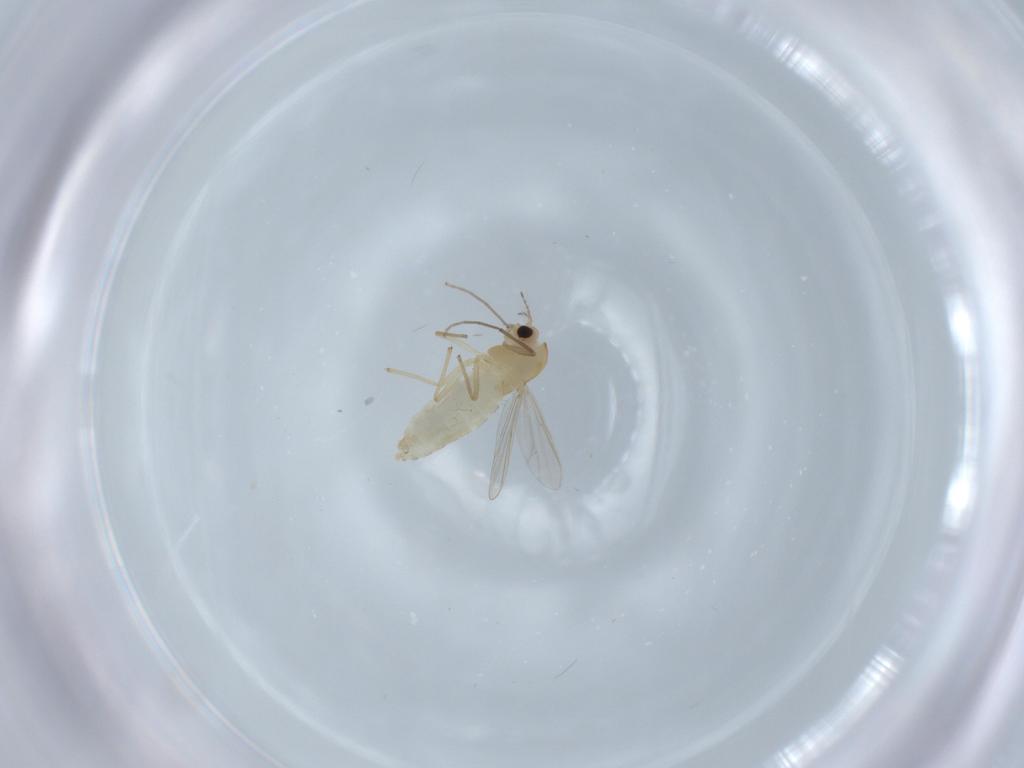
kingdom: Animalia
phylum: Arthropoda
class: Insecta
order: Diptera
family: Chironomidae
